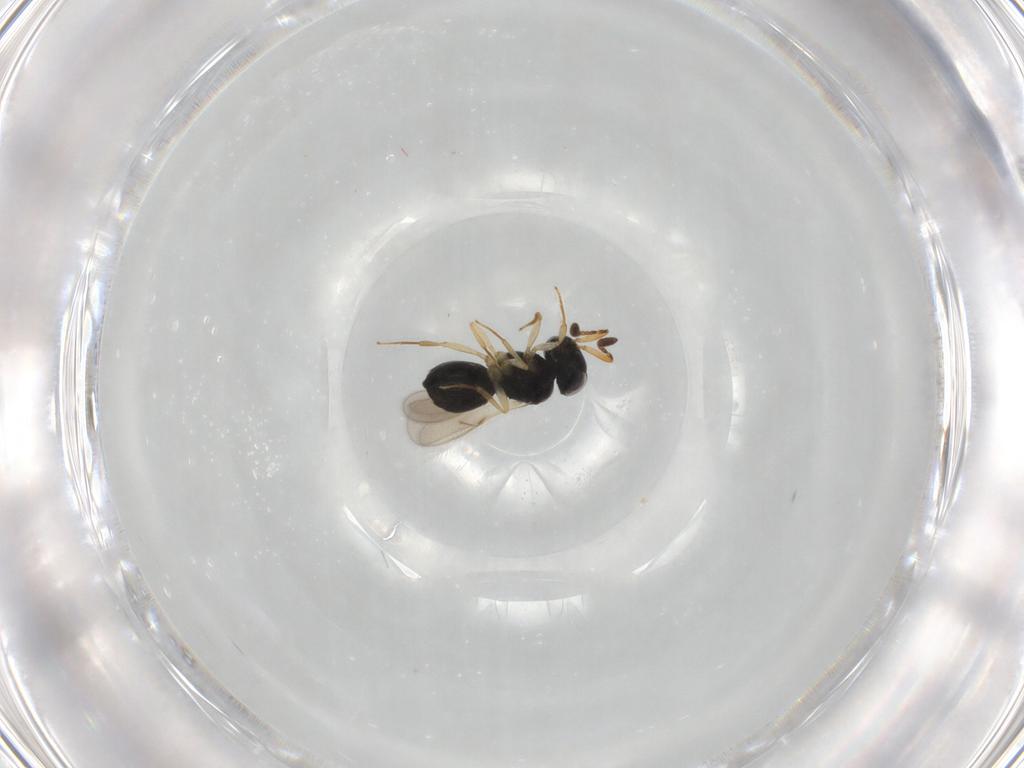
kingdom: Animalia
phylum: Arthropoda
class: Insecta
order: Hymenoptera
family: Scelionidae
